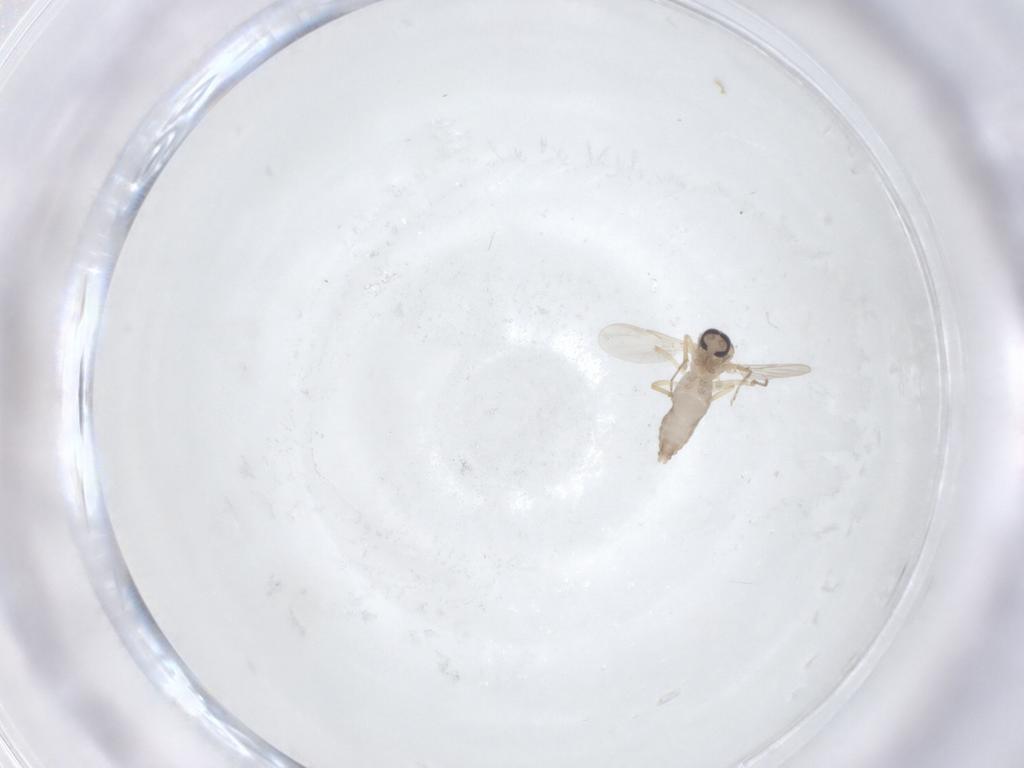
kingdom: Animalia
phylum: Arthropoda
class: Insecta
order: Diptera
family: Ceratopogonidae
